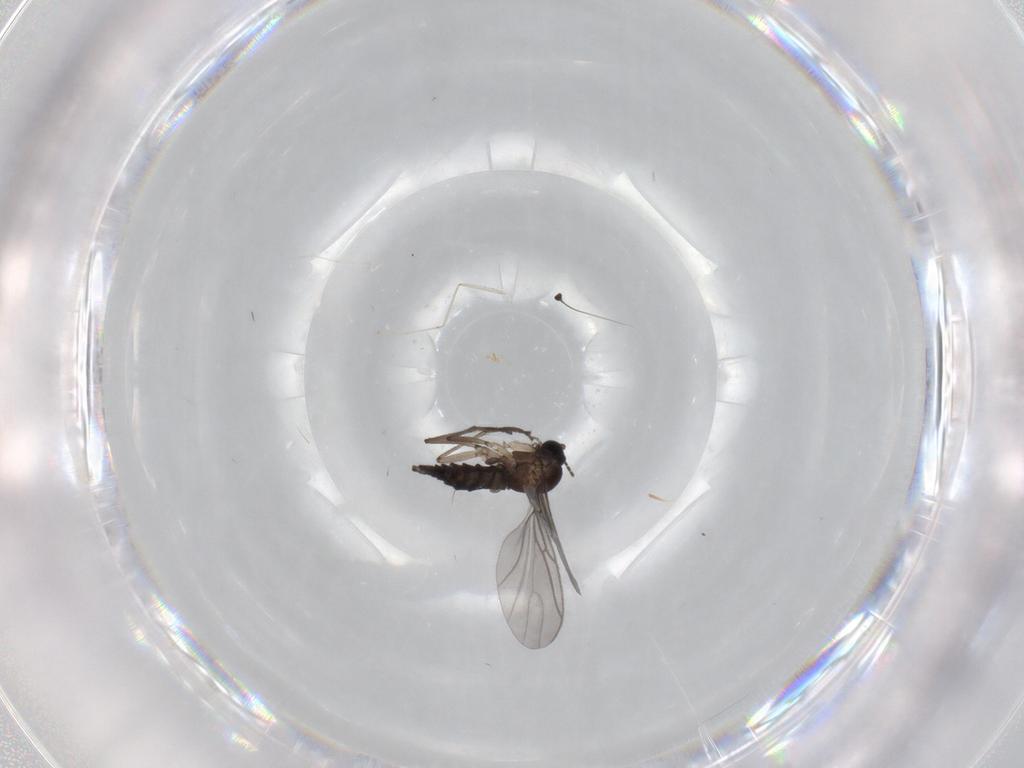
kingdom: Animalia
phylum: Arthropoda
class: Insecta
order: Diptera
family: Sciaridae
